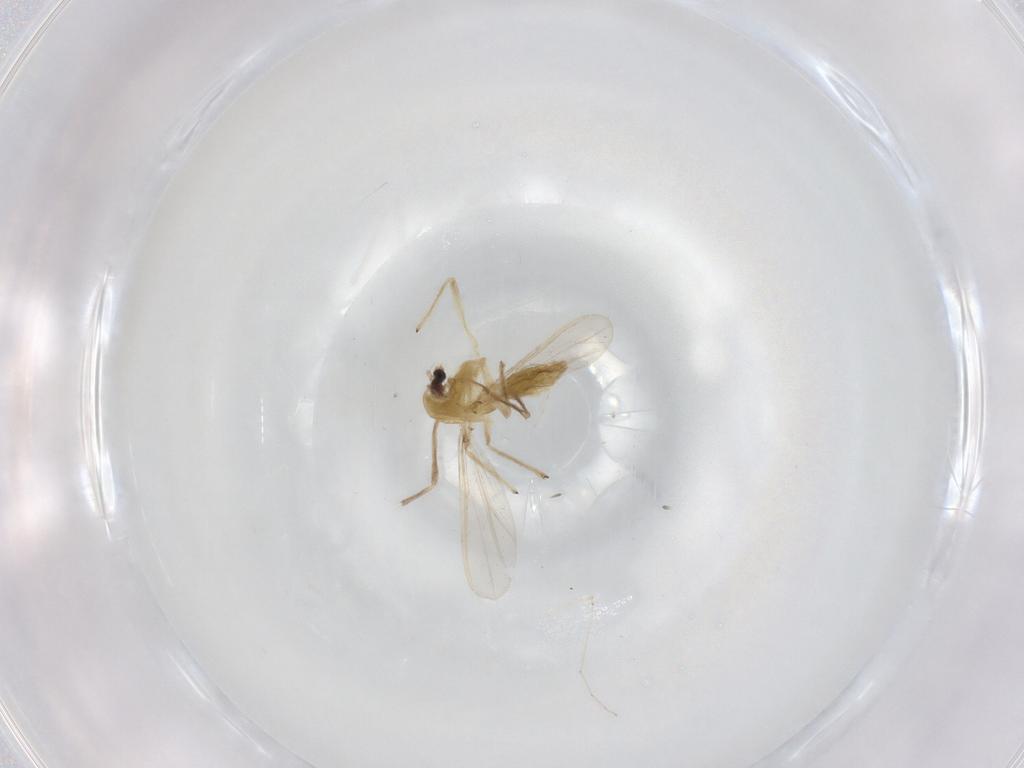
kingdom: Animalia
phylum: Arthropoda
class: Insecta
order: Diptera
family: Chironomidae
